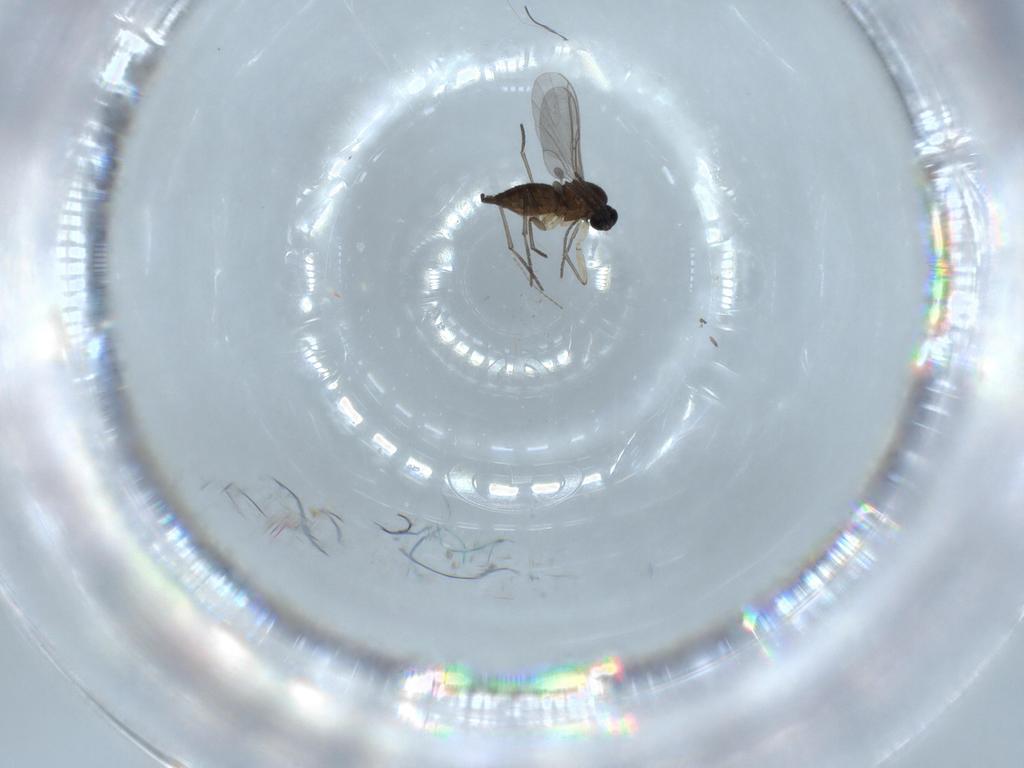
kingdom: Animalia
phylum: Arthropoda
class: Insecta
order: Diptera
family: Sciaridae
